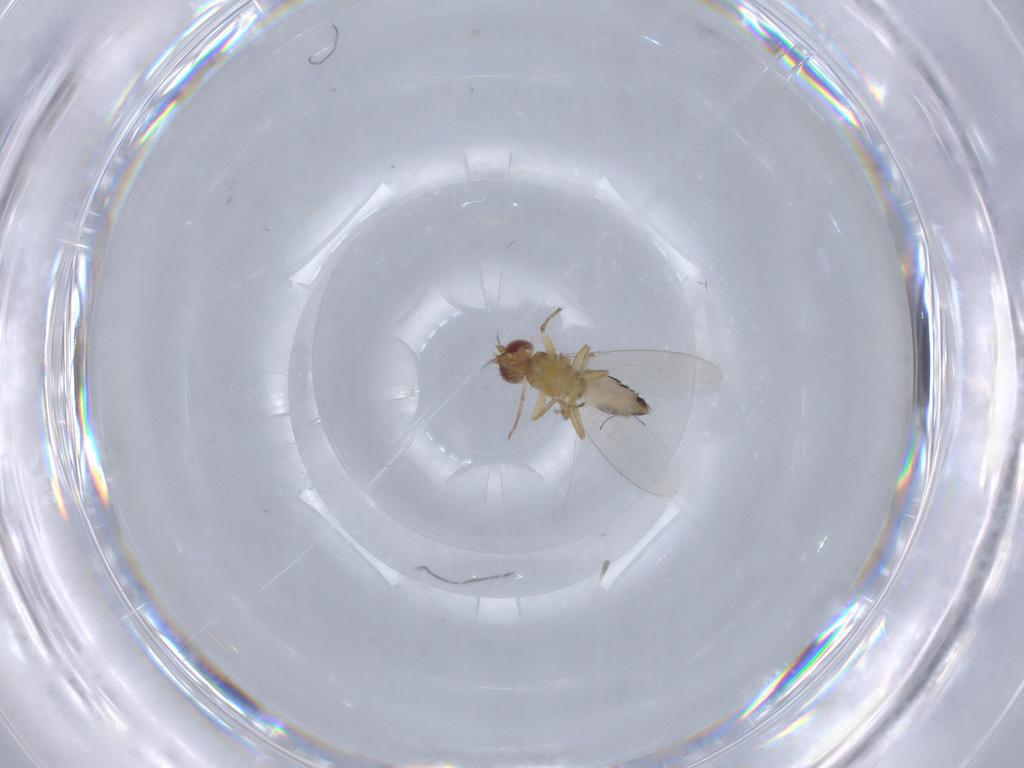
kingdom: Animalia
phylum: Arthropoda
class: Insecta
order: Diptera
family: Periscelididae
